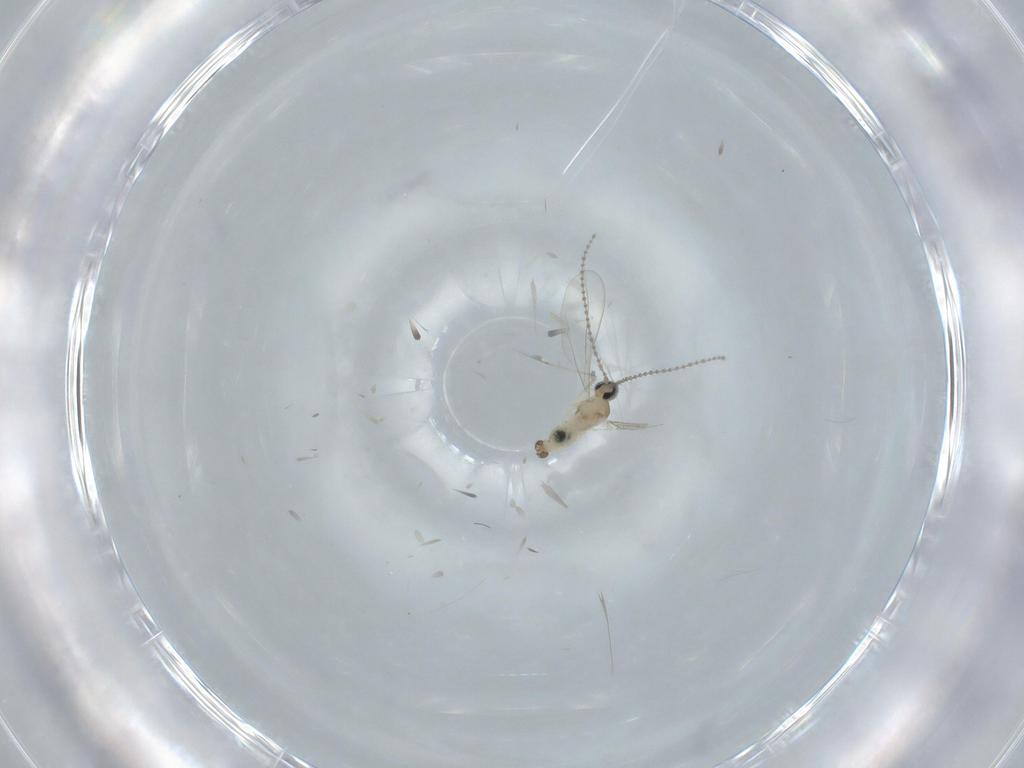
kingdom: Animalia
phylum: Arthropoda
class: Insecta
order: Diptera
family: Cecidomyiidae
